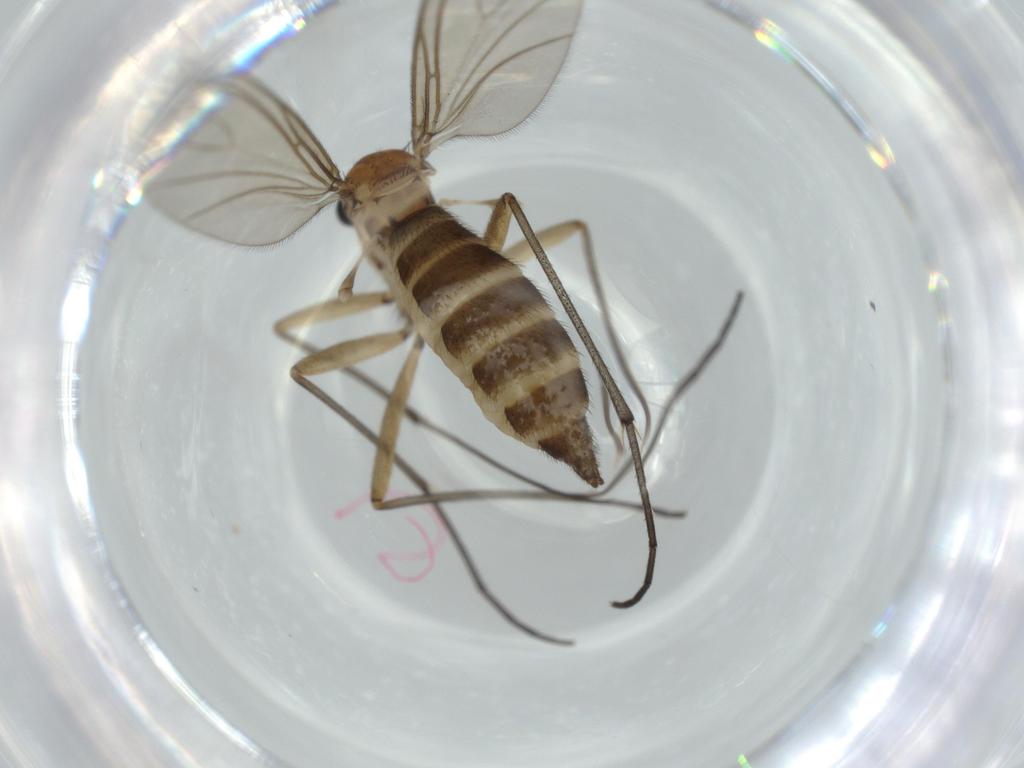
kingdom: Animalia
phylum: Arthropoda
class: Insecta
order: Diptera
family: Sciaridae
